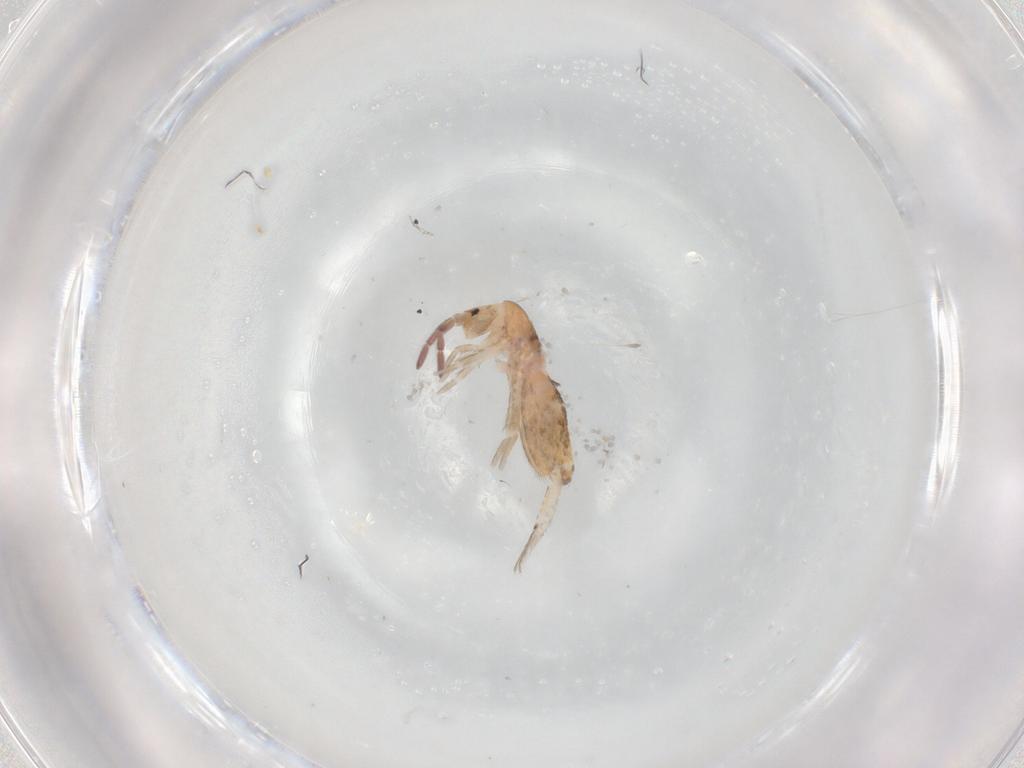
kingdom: Animalia
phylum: Arthropoda
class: Collembola
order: Entomobryomorpha
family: Entomobryidae
